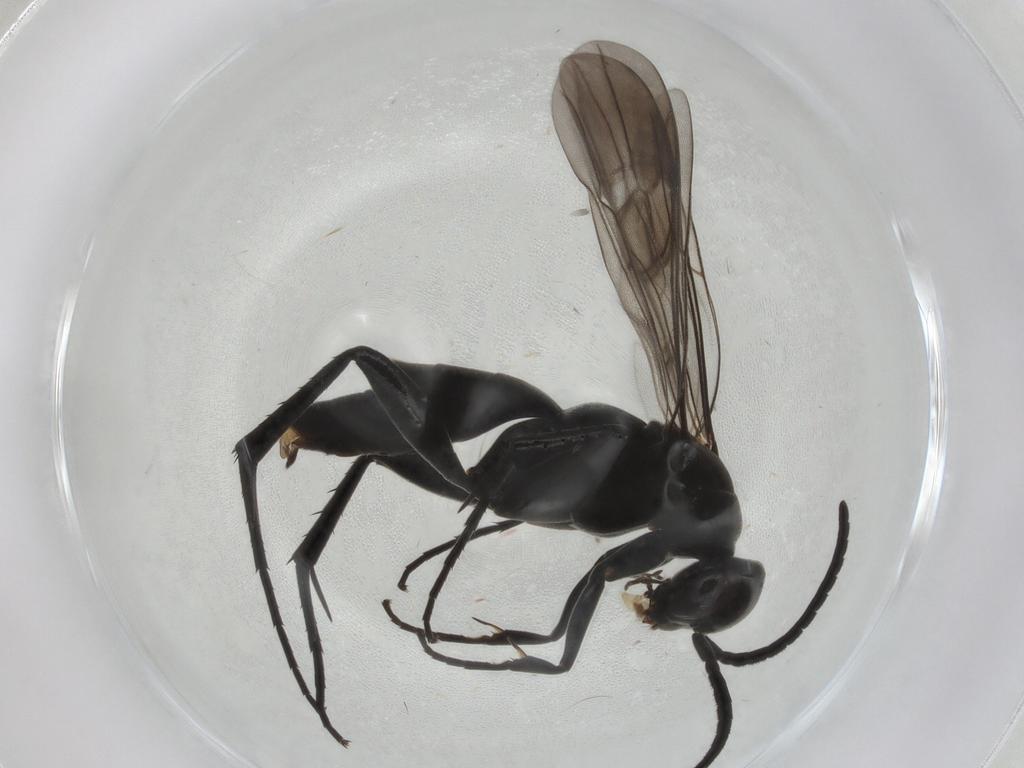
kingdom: Animalia
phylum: Arthropoda
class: Insecta
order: Hymenoptera
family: Pompilidae
